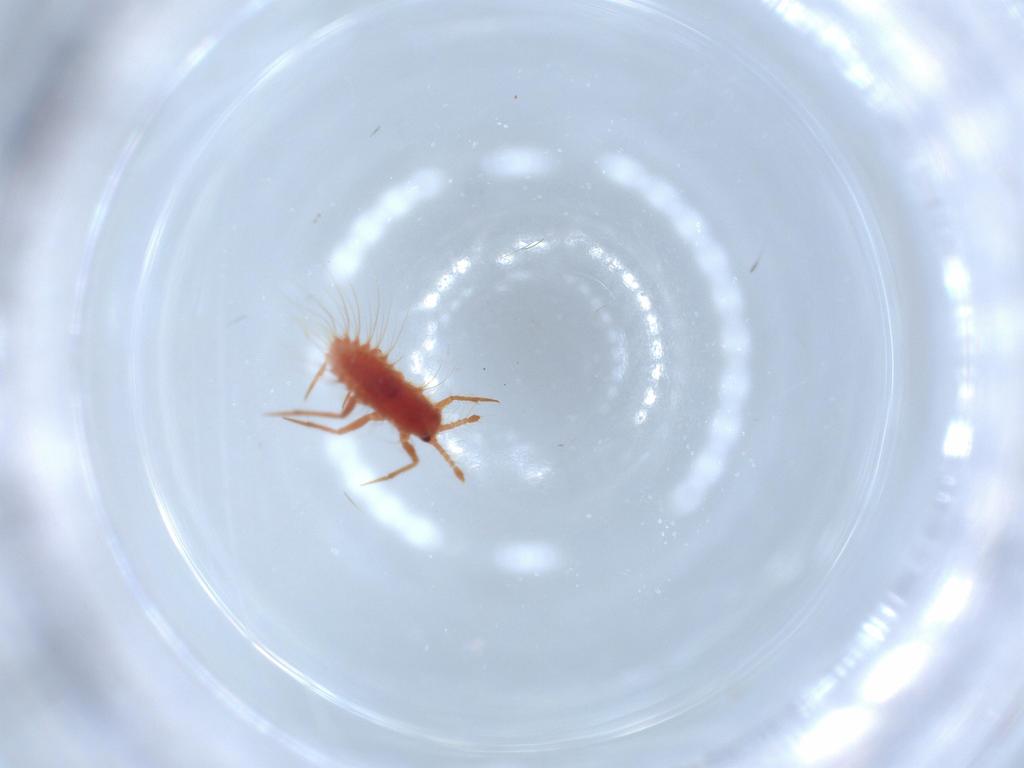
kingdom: Animalia
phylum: Arthropoda
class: Insecta
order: Hemiptera
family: Monophlebidae
